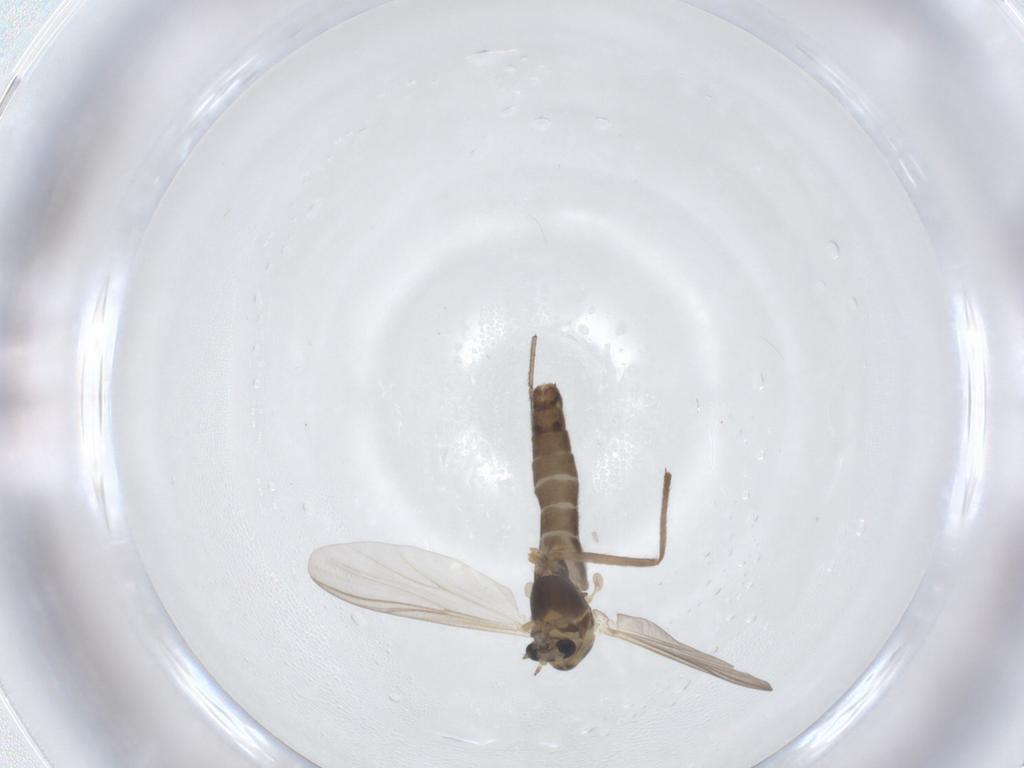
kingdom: Animalia
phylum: Arthropoda
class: Insecta
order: Diptera
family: Chironomidae
